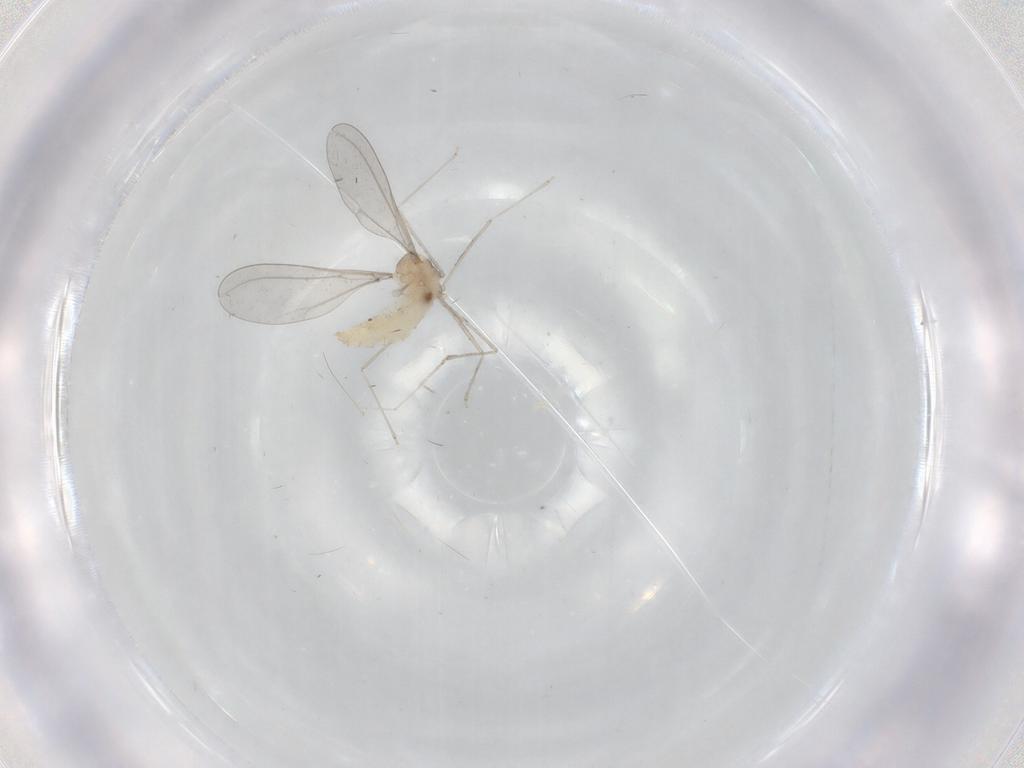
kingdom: Animalia
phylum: Arthropoda
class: Insecta
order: Diptera
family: Cecidomyiidae
